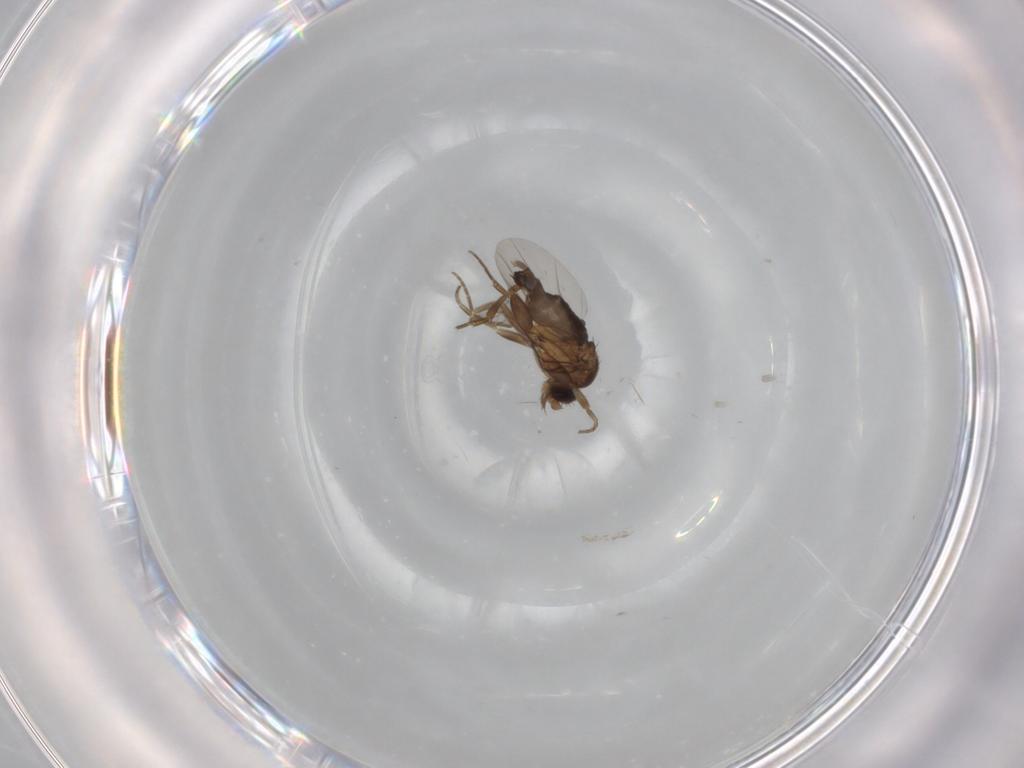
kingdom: Animalia
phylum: Arthropoda
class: Insecta
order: Diptera
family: Phoridae
